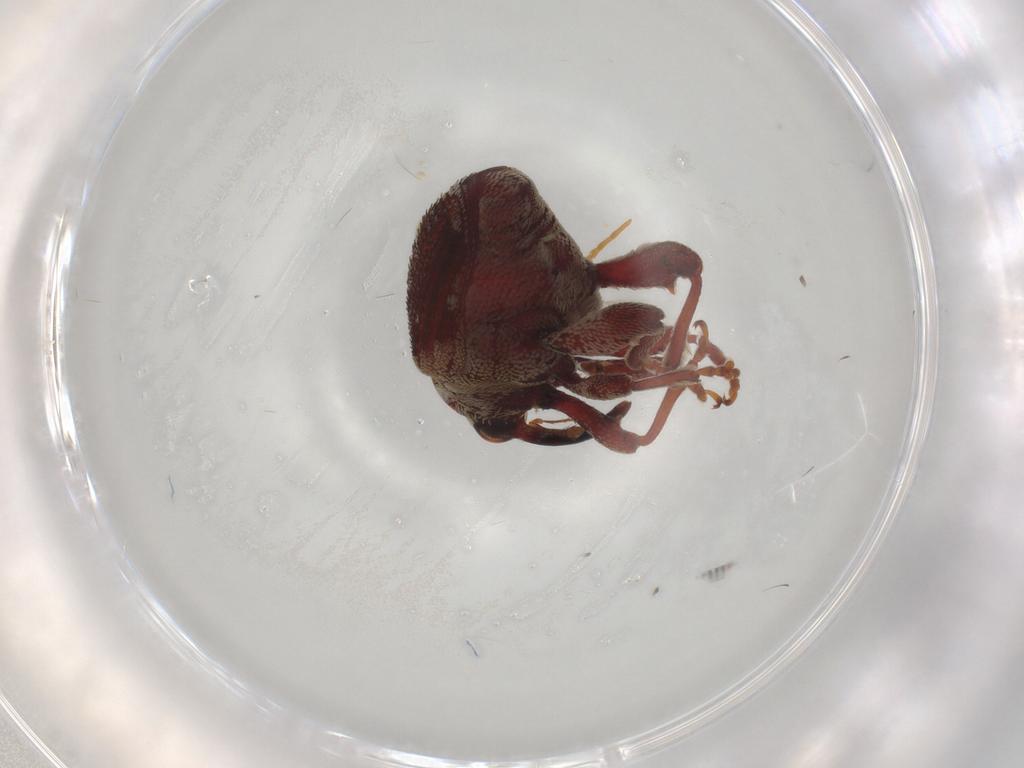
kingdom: Animalia
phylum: Arthropoda
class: Insecta
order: Coleoptera
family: Curculionidae
